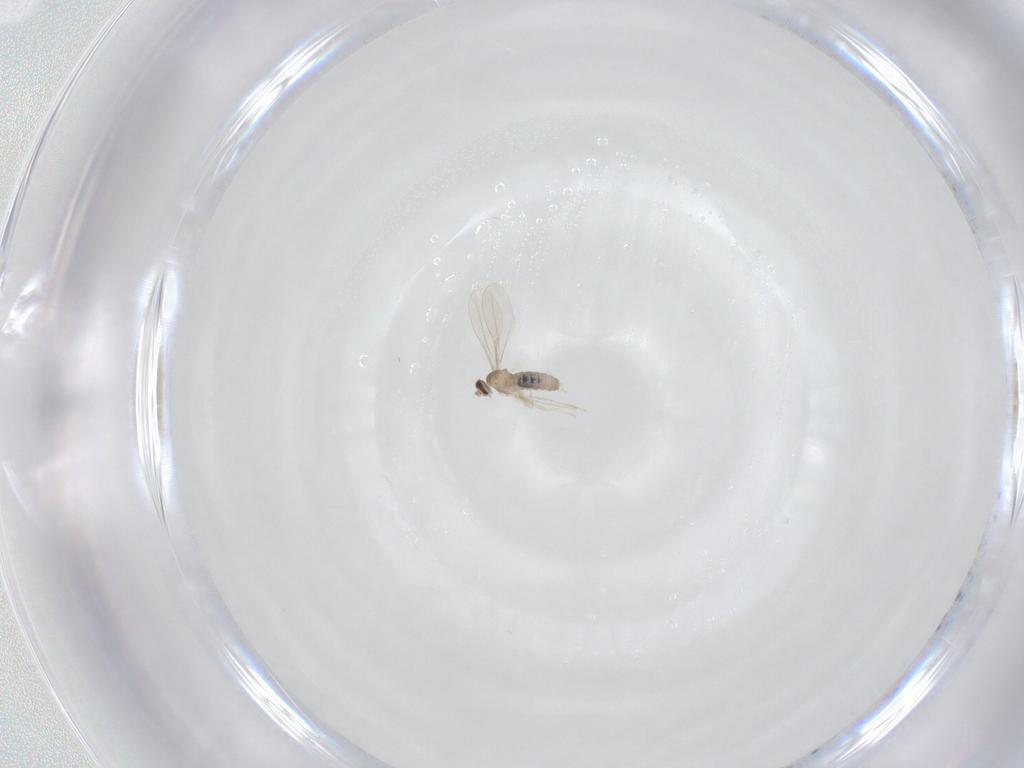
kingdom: Animalia
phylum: Arthropoda
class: Insecta
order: Diptera
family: Cecidomyiidae
